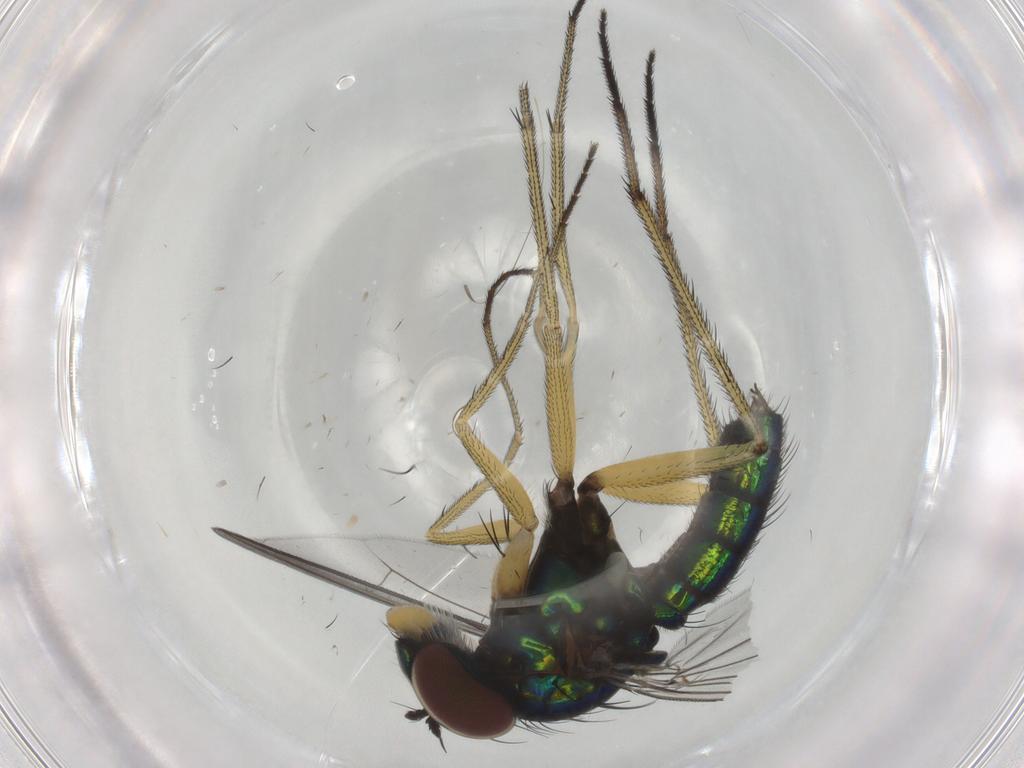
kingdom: Animalia
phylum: Arthropoda
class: Insecta
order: Diptera
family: Dolichopodidae
